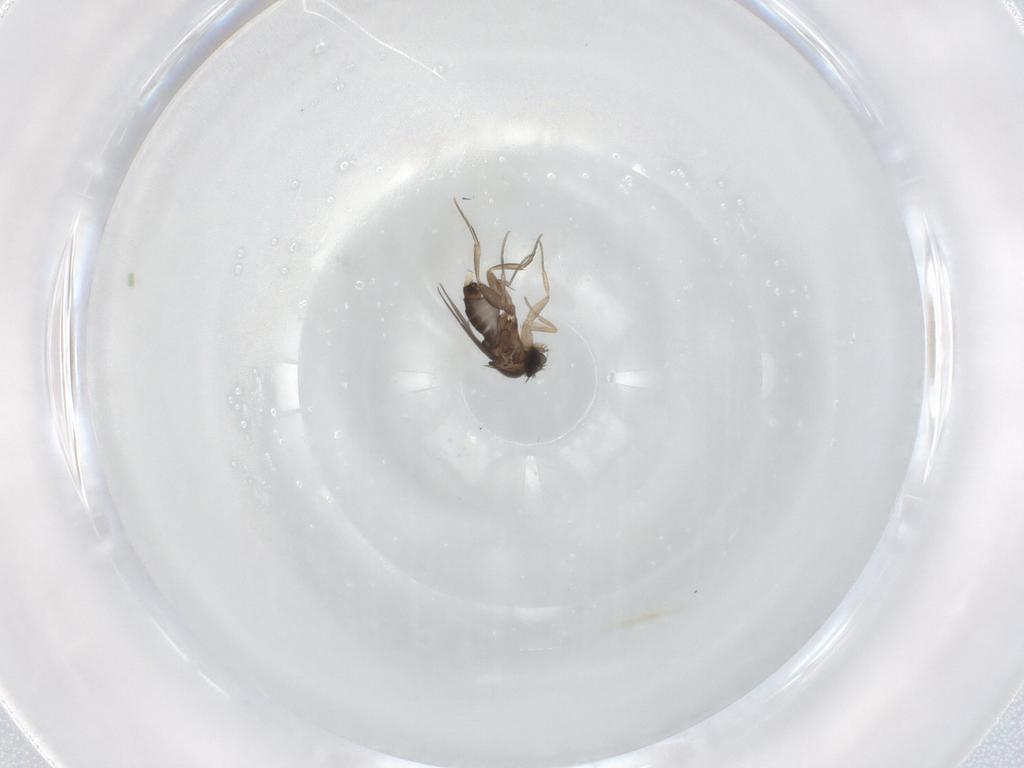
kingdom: Animalia
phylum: Arthropoda
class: Insecta
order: Diptera
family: Phoridae
